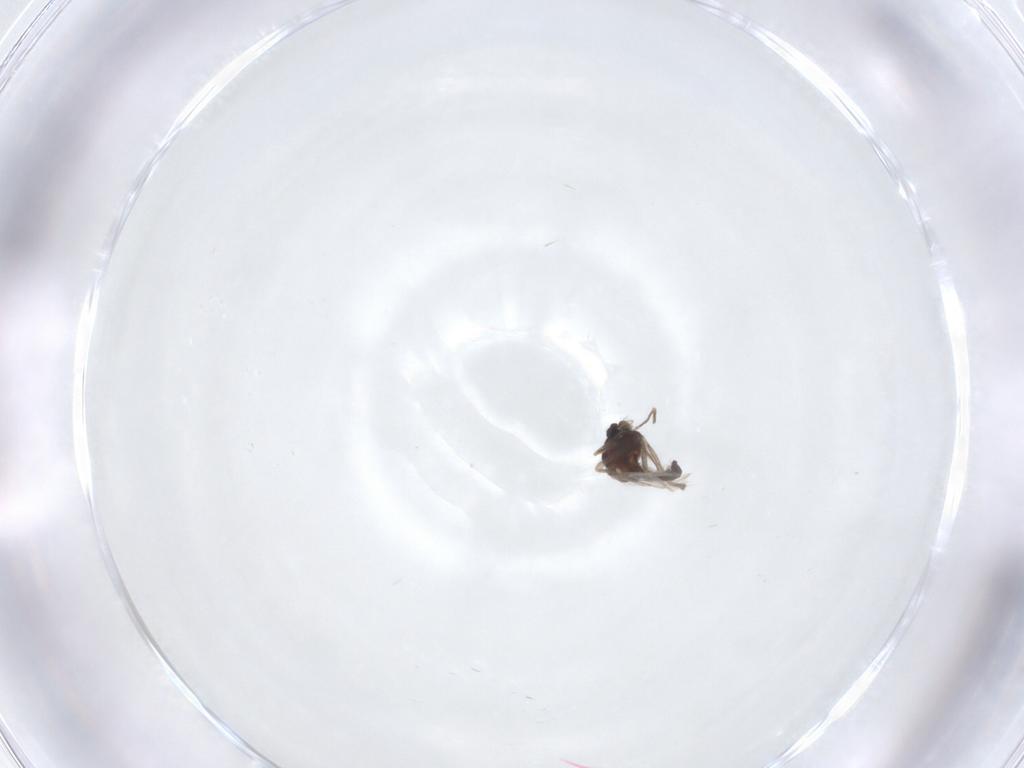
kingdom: Animalia
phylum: Arthropoda
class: Insecta
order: Diptera
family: Chironomidae
